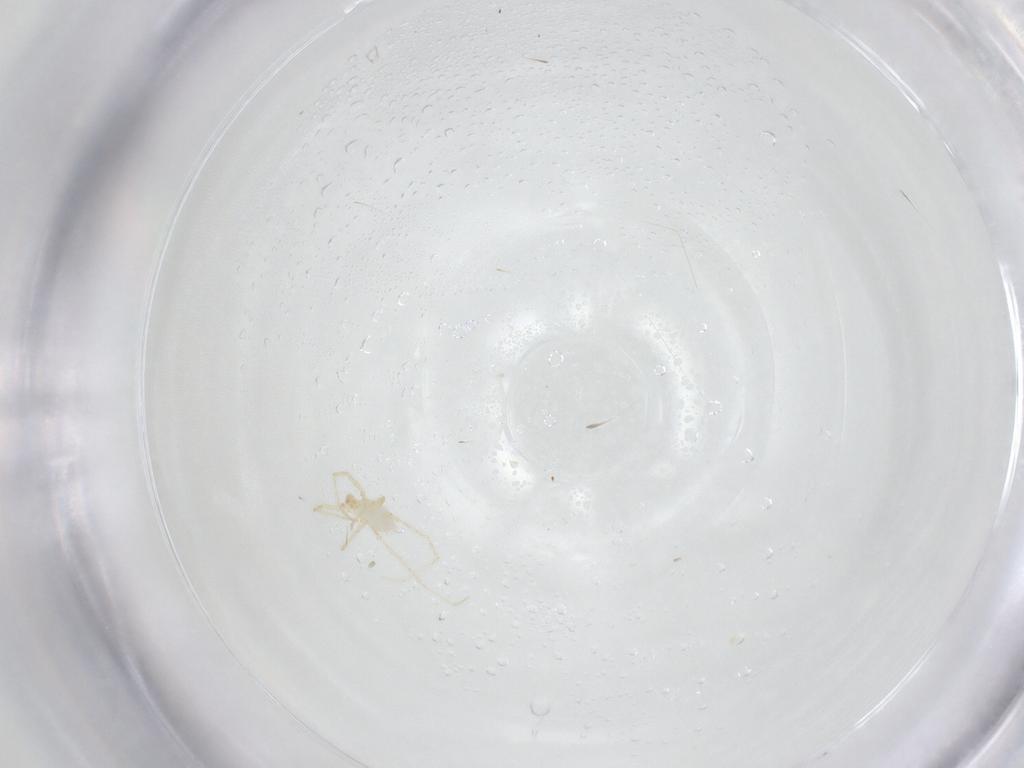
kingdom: Animalia
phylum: Arthropoda
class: Arachnida
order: Trombidiformes
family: Erythraeidae
